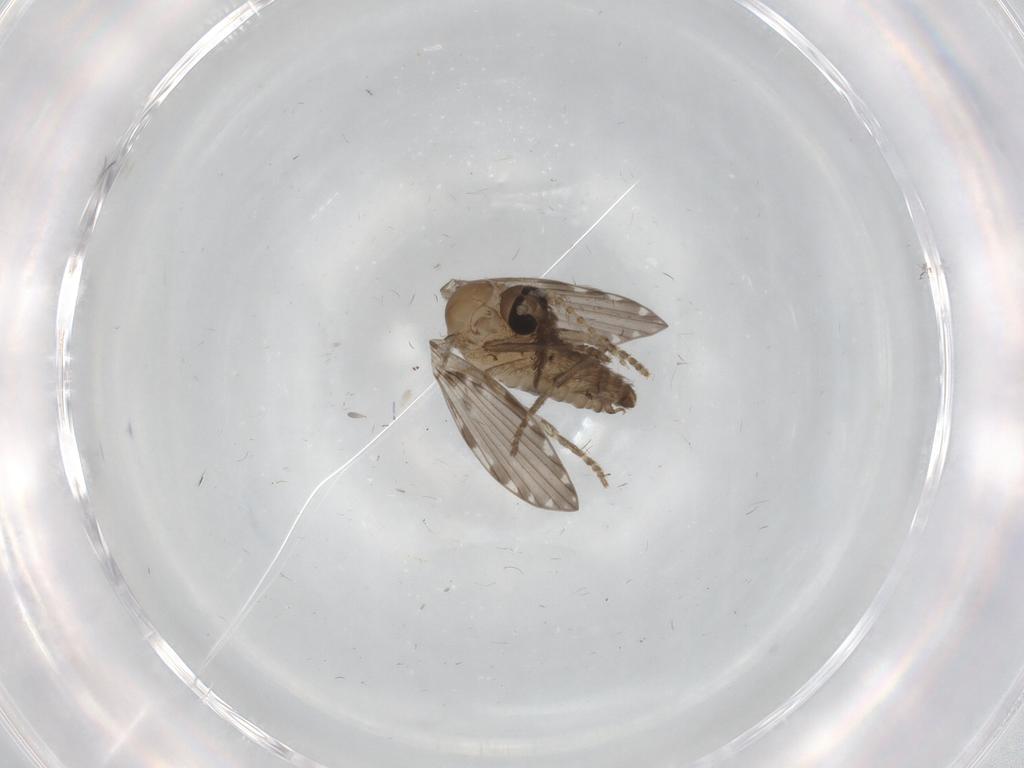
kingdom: Animalia
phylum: Arthropoda
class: Insecta
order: Diptera
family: Psychodidae
